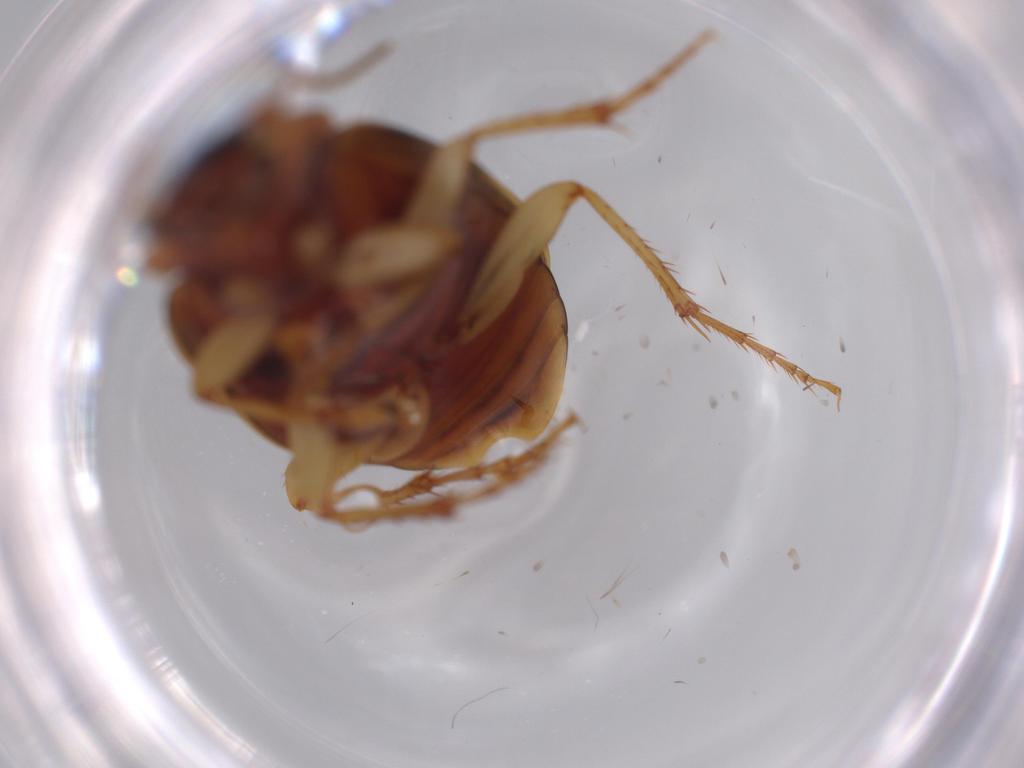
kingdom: Animalia
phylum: Arthropoda
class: Insecta
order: Coleoptera
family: Carabidae
